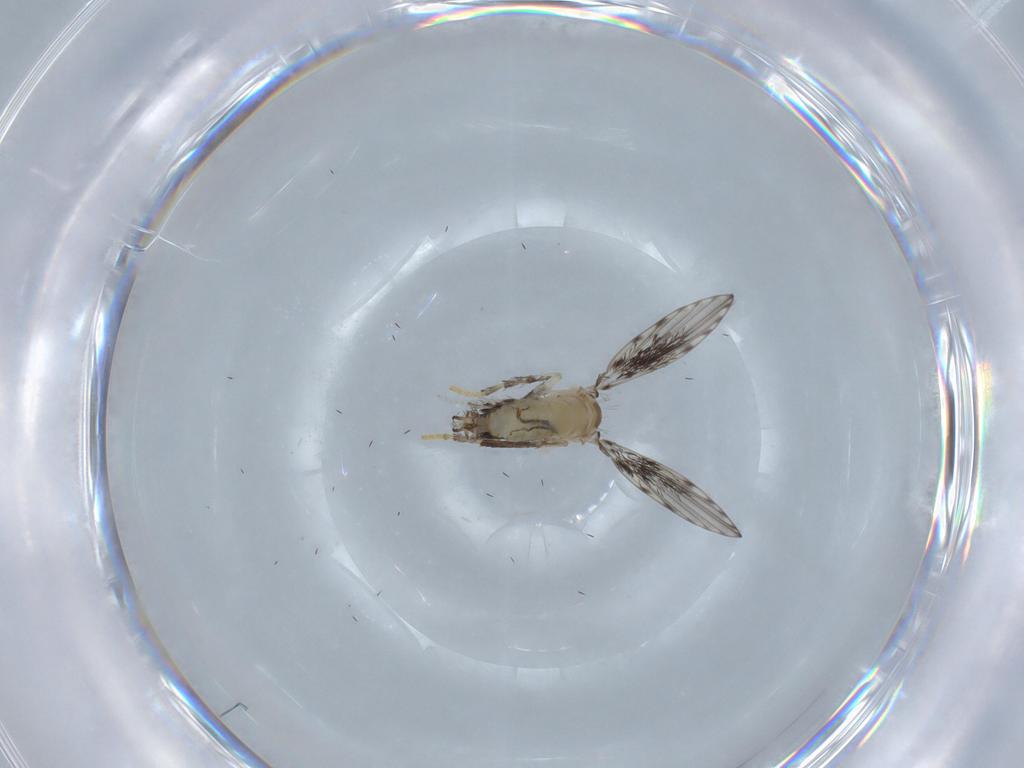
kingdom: Animalia
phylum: Arthropoda
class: Insecta
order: Diptera
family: Psychodidae
